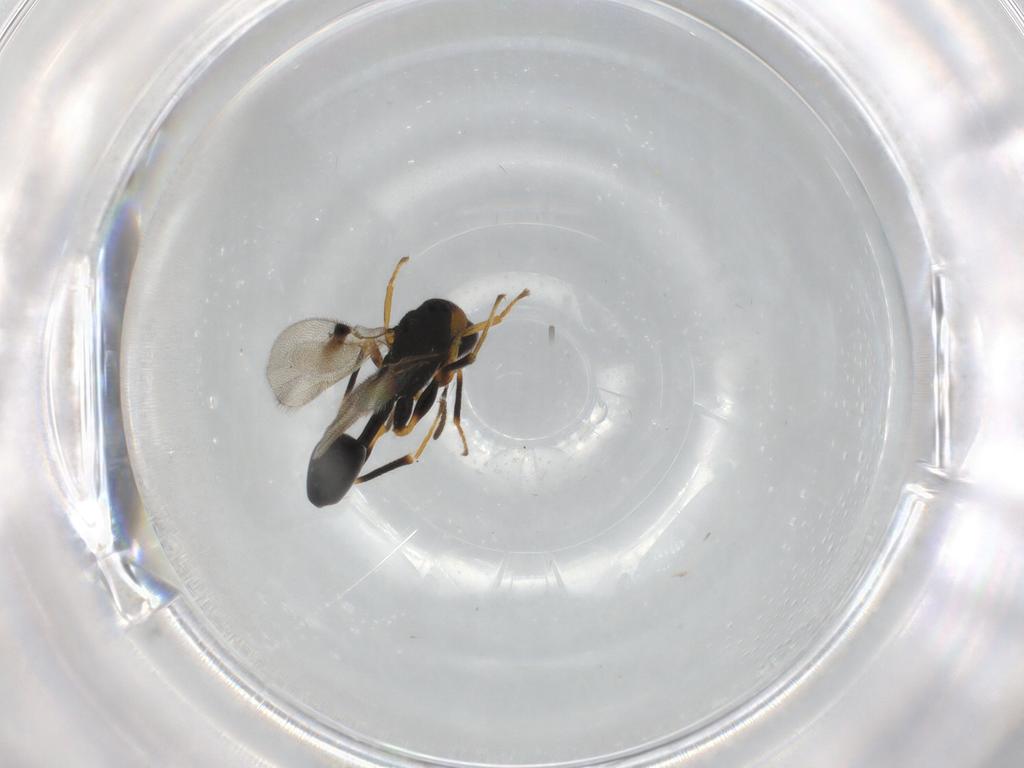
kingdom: Animalia
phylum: Arthropoda
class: Insecta
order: Hymenoptera
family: Eurytomidae
